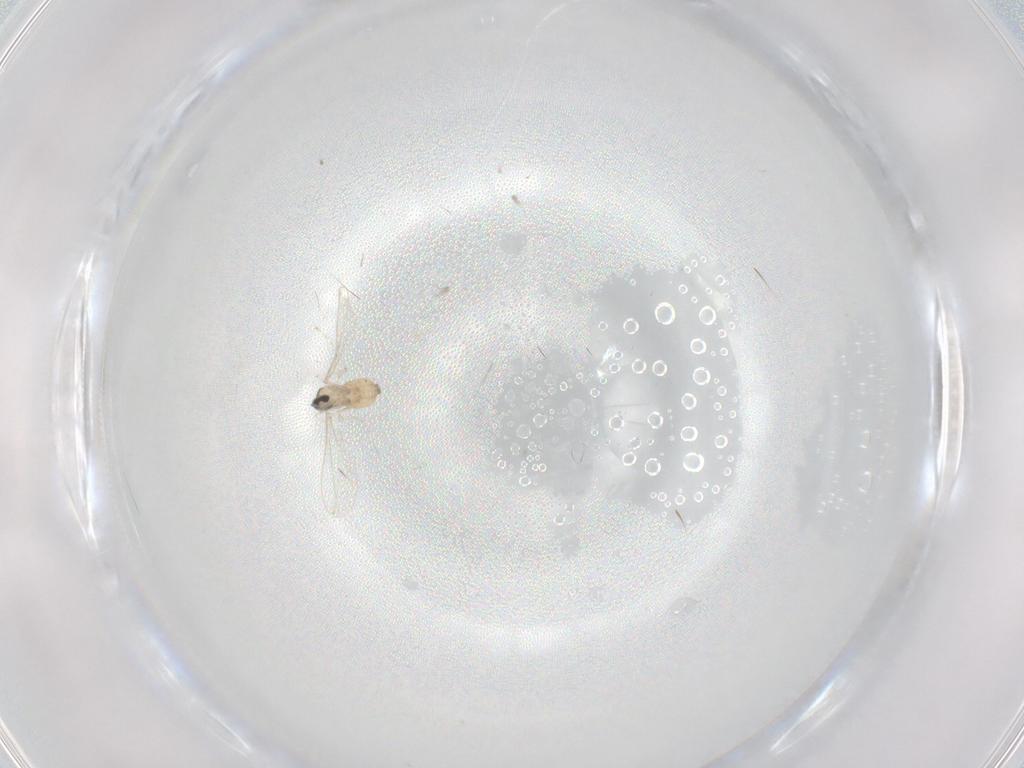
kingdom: Animalia
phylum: Arthropoda
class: Insecta
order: Diptera
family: Cecidomyiidae
